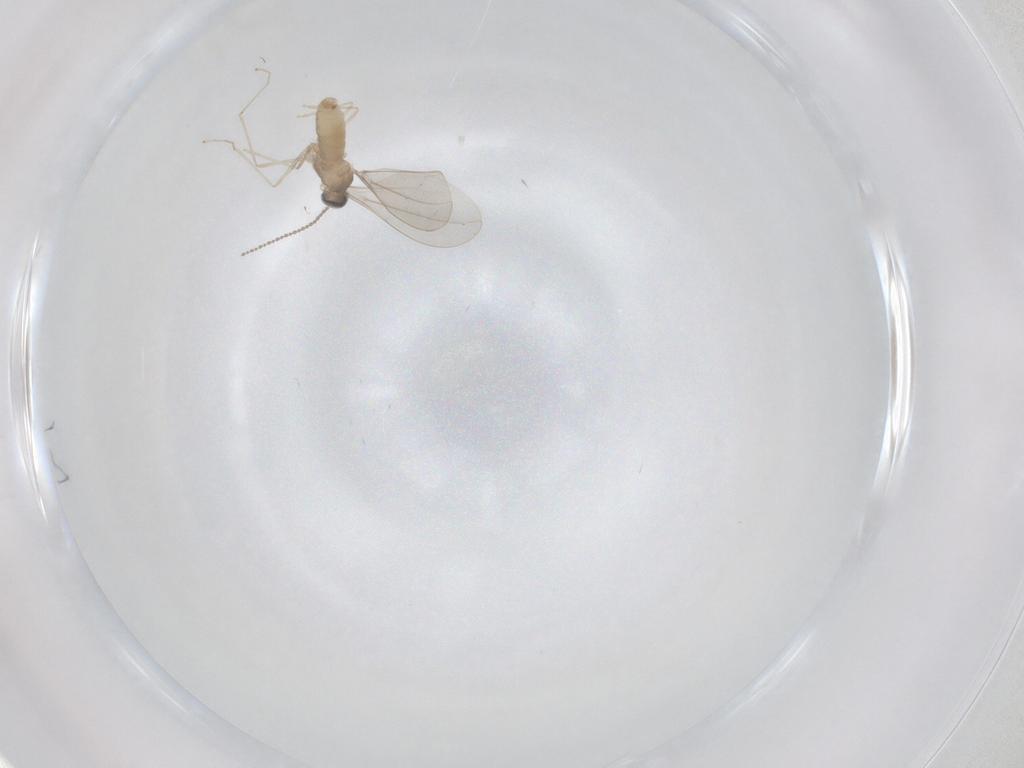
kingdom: Animalia
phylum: Arthropoda
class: Insecta
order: Diptera
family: Cecidomyiidae
